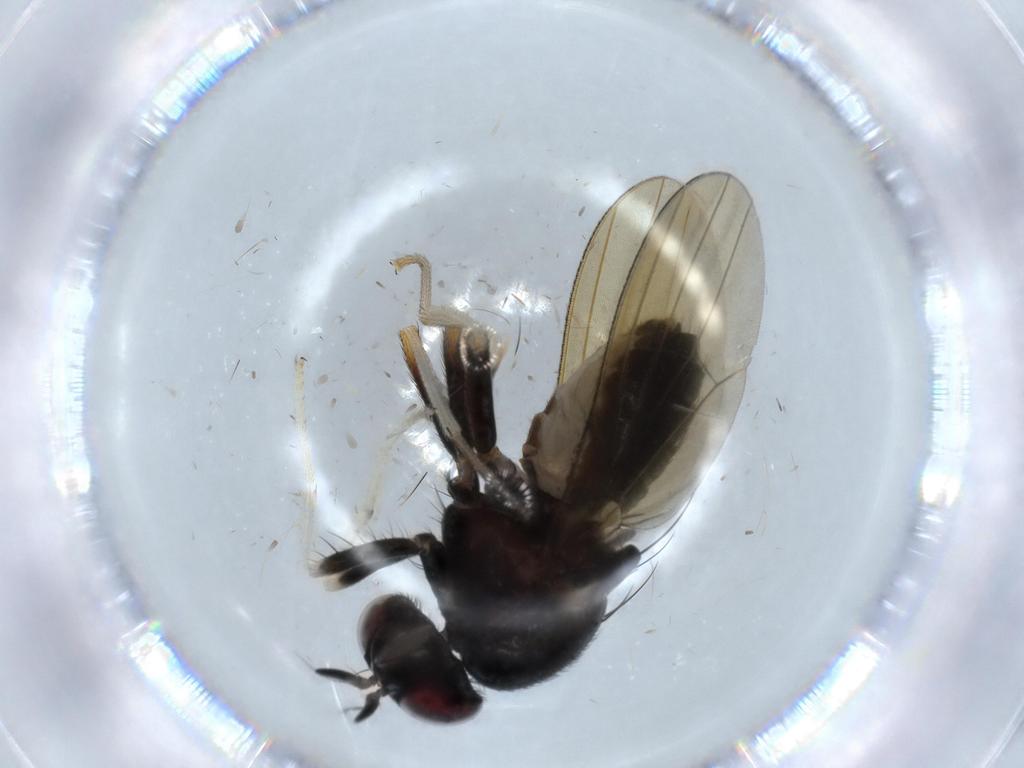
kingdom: Animalia
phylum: Arthropoda
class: Insecta
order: Diptera
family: Lauxaniidae
